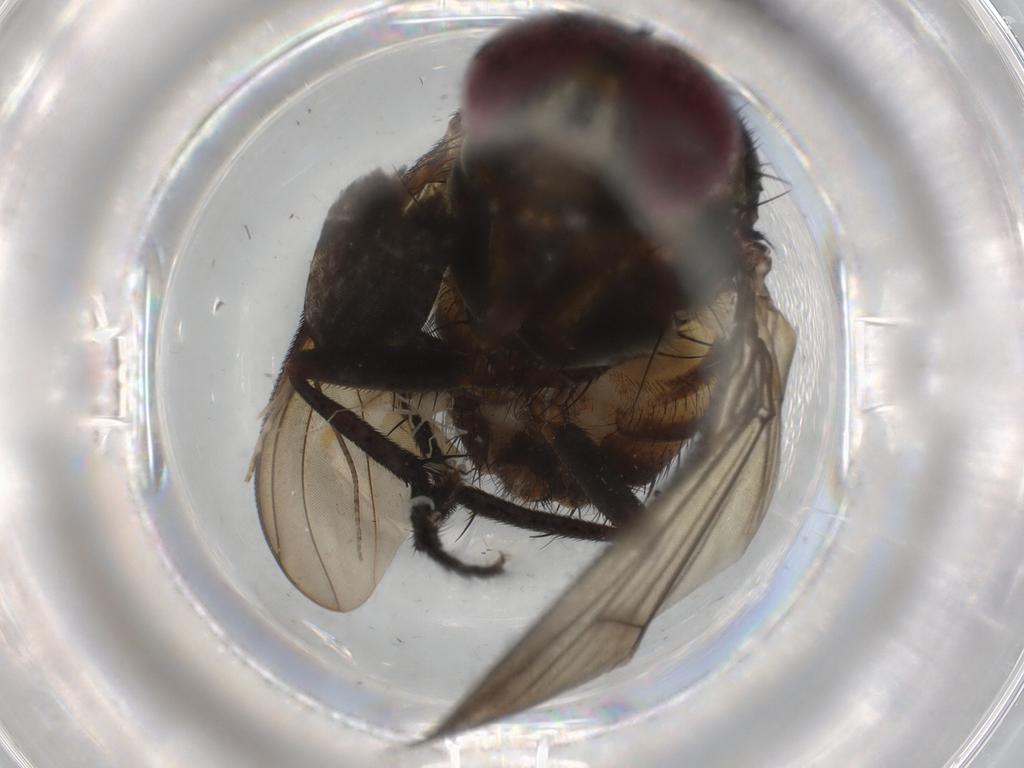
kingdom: Animalia
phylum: Arthropoda
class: Insecta
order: Diptera
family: Muscidae
